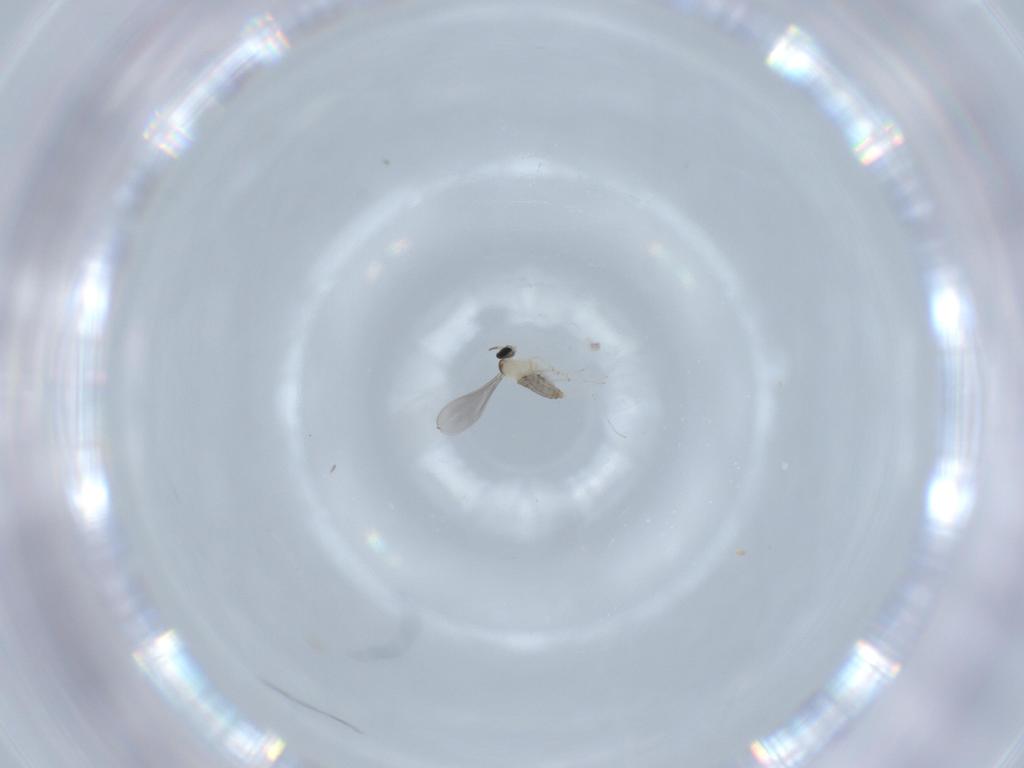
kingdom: Animalia
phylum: Arthropoda
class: Insecta
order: Diptera
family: Cecidomyiidae
